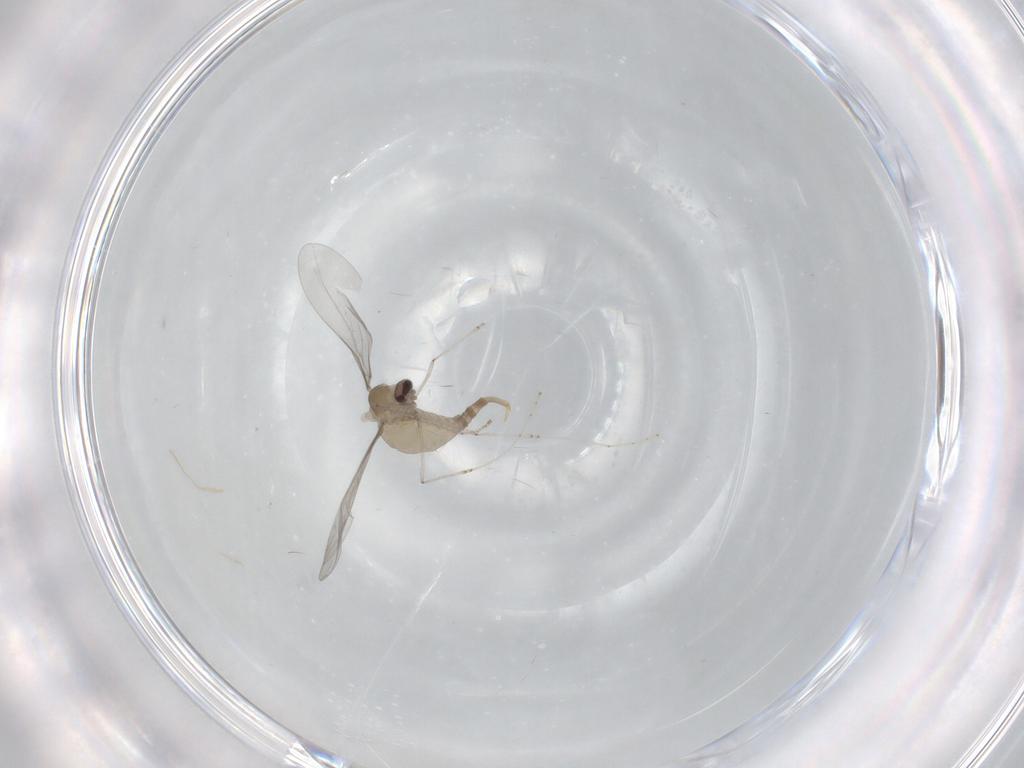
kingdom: Animalia
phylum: Arthropoda
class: Insecta
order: Diptera
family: Cecidomyiidae
